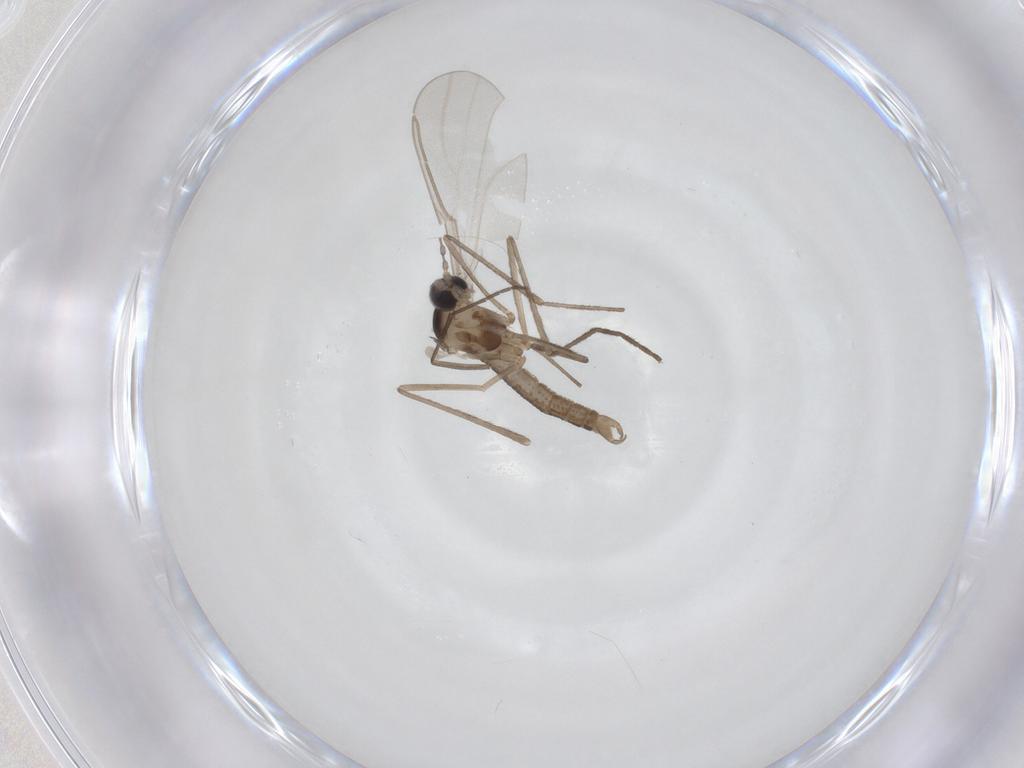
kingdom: Animalia
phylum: Arthropoda
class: Insecta
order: Diptera
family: Cecidomyiidae
